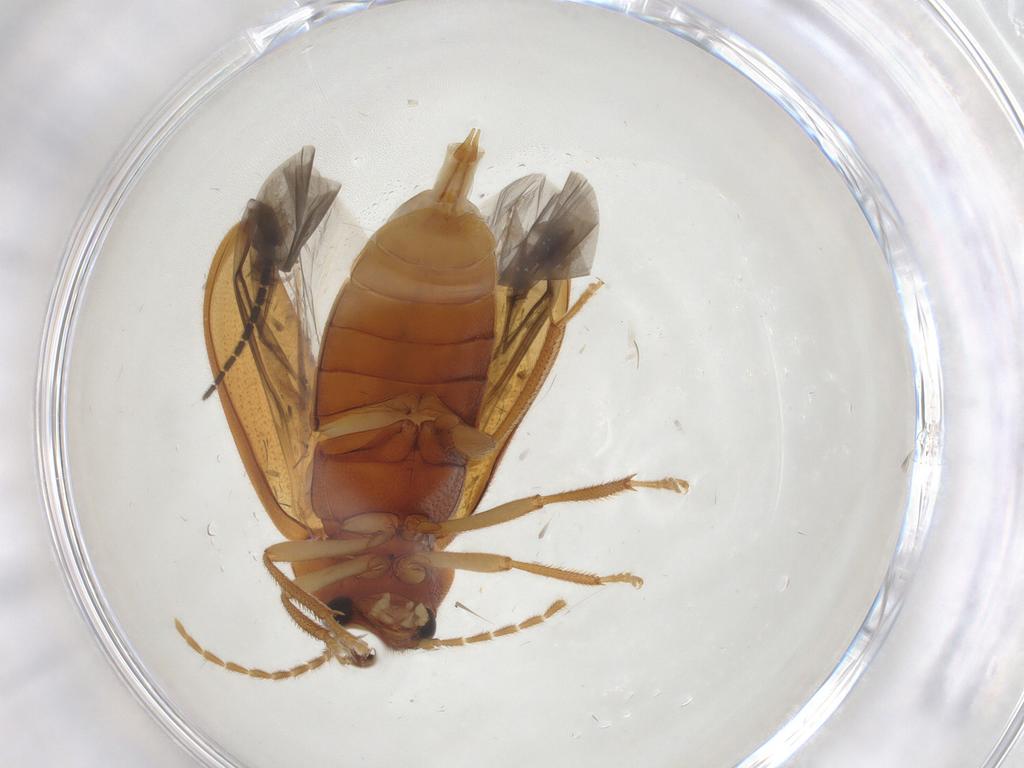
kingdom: Animalia
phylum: Arthropoda
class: Insecta
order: Coleoptera
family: Ptilodactylidae
